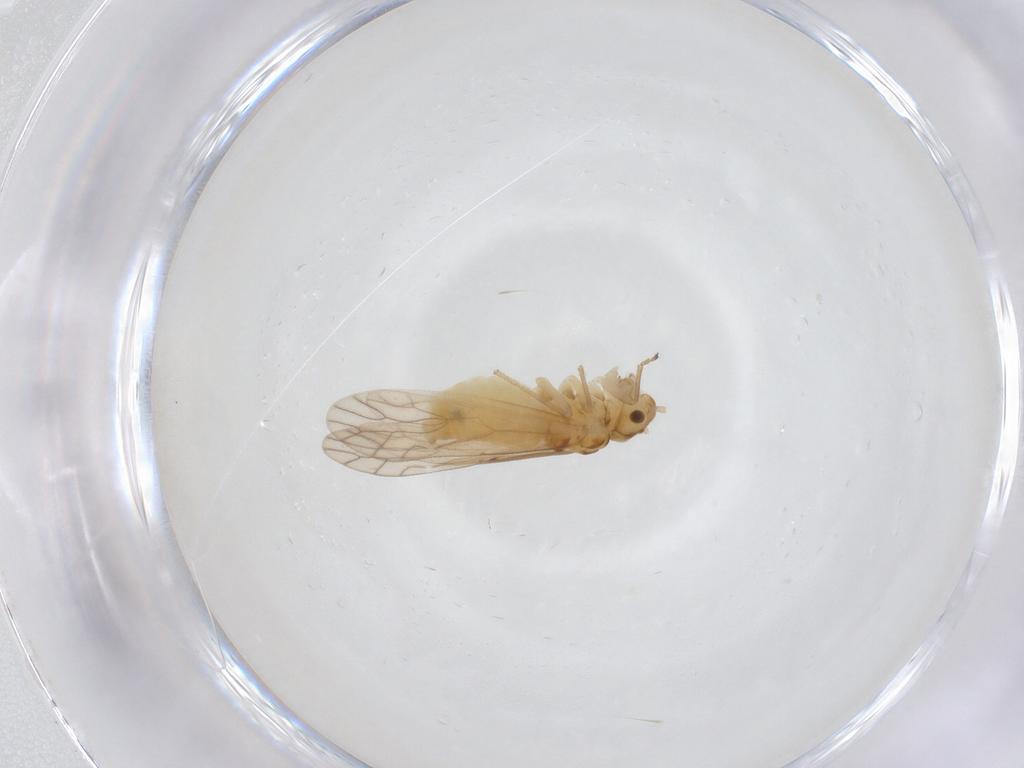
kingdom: Animalia
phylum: Arthropoda
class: Insecta
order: Psocodea
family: Caeciliusidae
